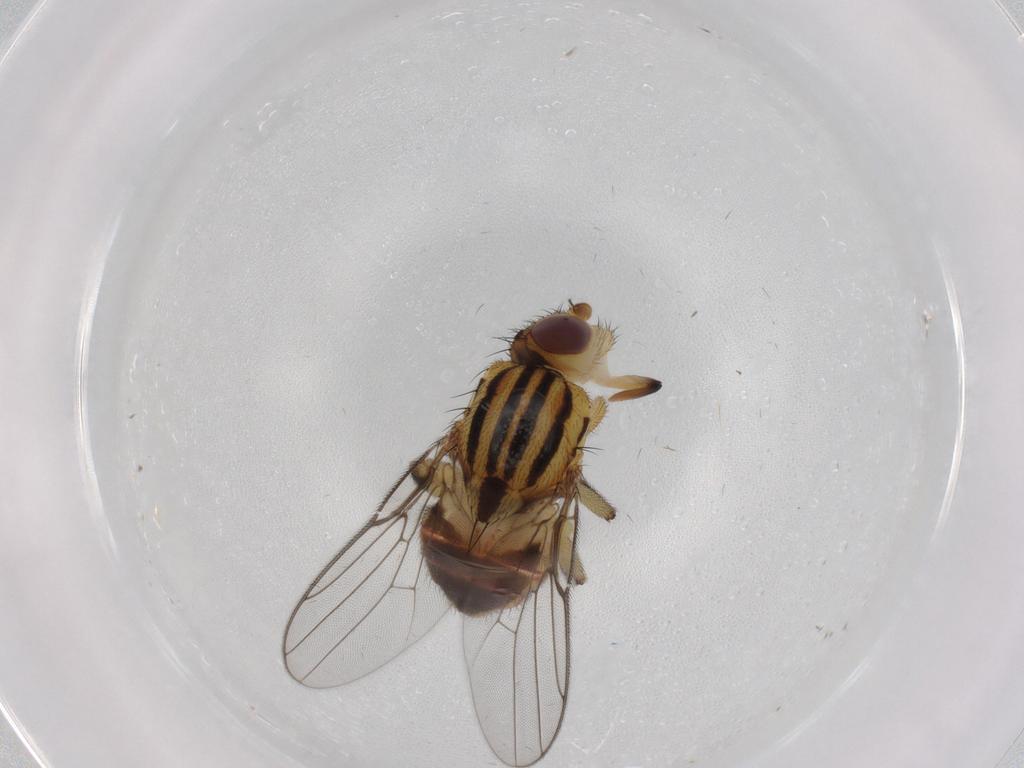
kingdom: Animalia
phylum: Arthropoda
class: Insecta
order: Diptera
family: Chloropidae
